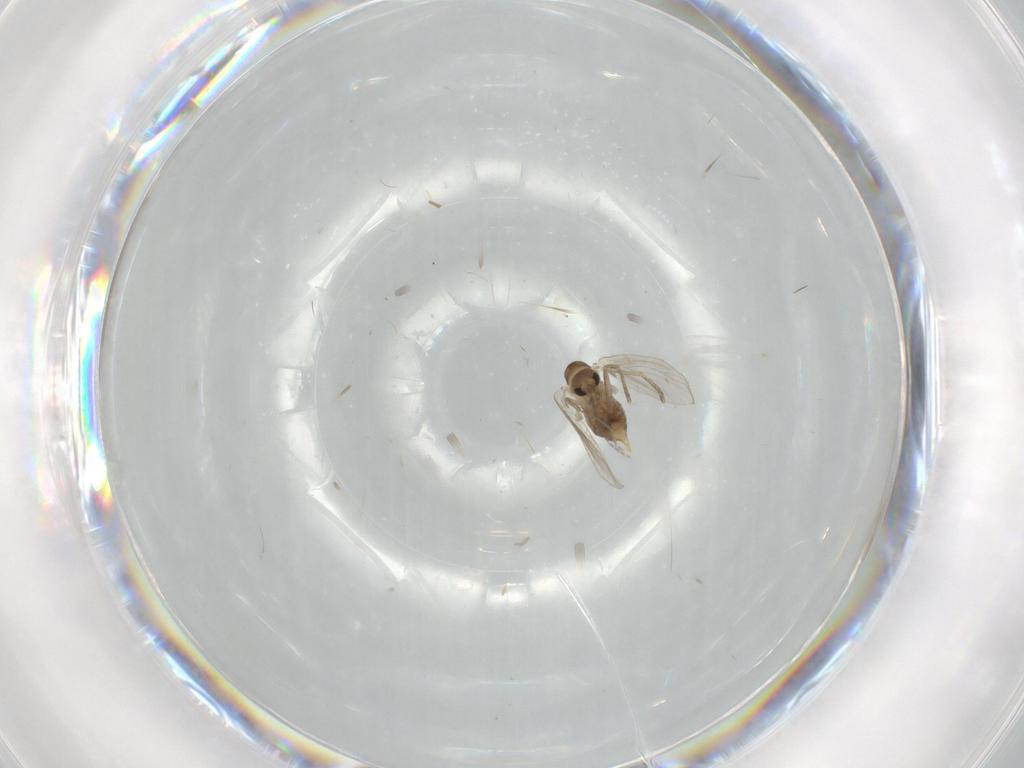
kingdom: Animalia
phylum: Arthropoda
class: Insecta
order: Diptera
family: Psychodidae
